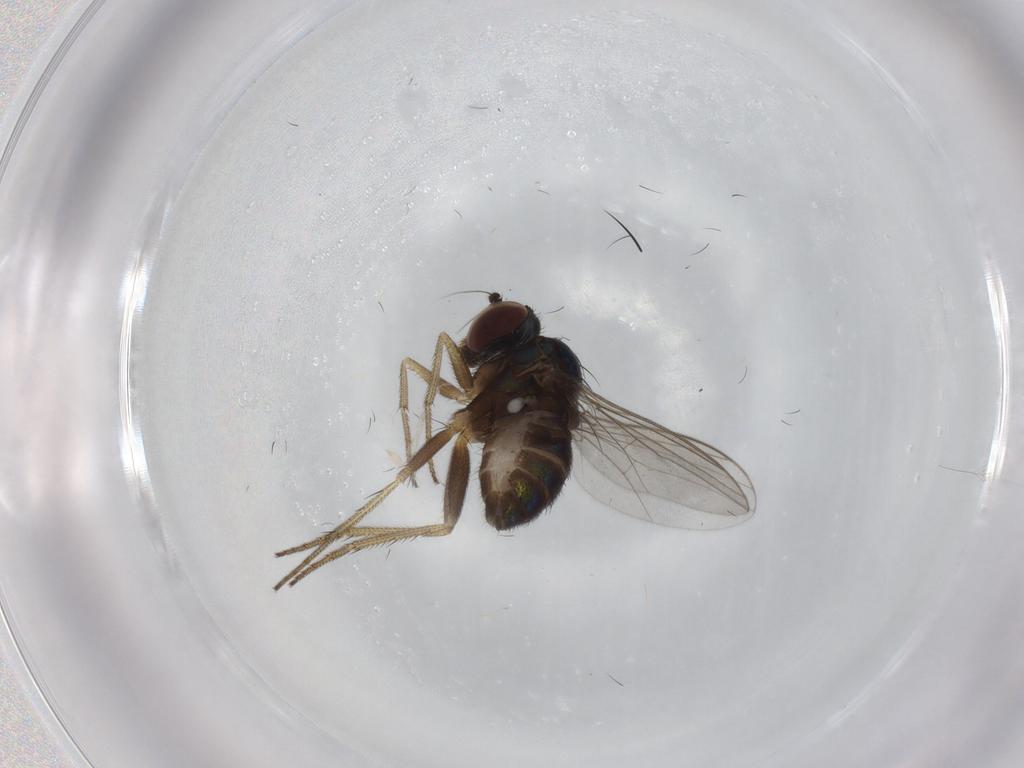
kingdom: Animalia
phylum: Arthropoda
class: Insecta
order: Diptera
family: Dolichopodidae
